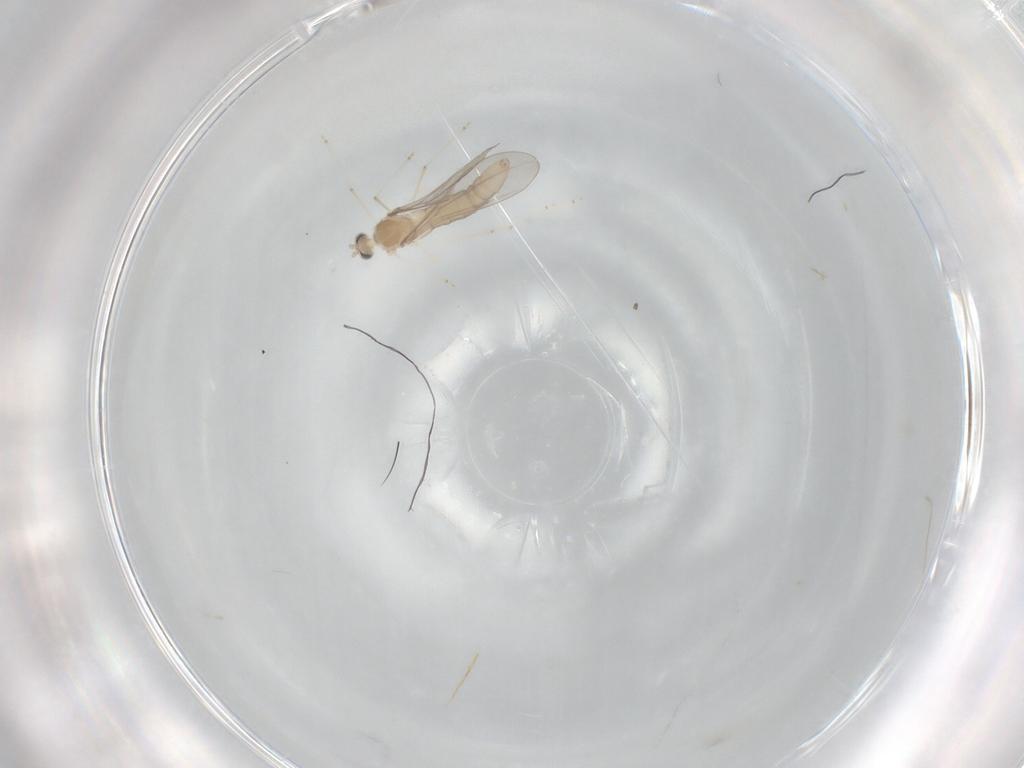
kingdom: Animalia
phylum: Arthropoda
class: Insecta
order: Diptera
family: Cecidomyiidae
